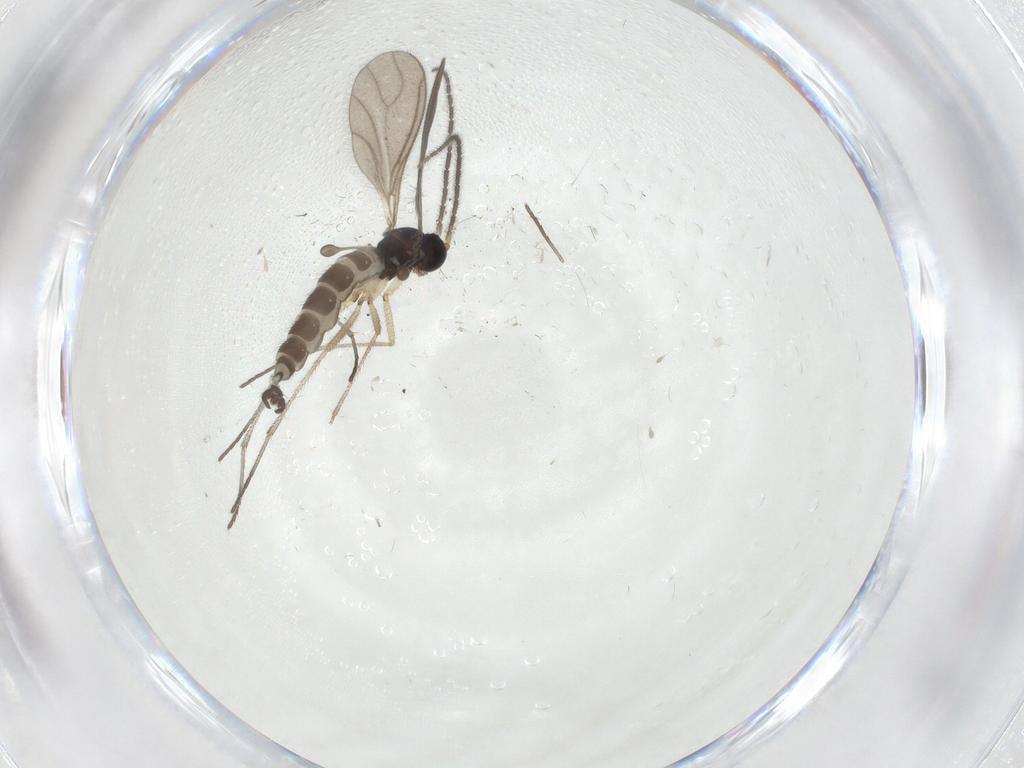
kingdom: Animalia
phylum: Arthropoda
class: Insecta
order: Diptera
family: Sciaridae
